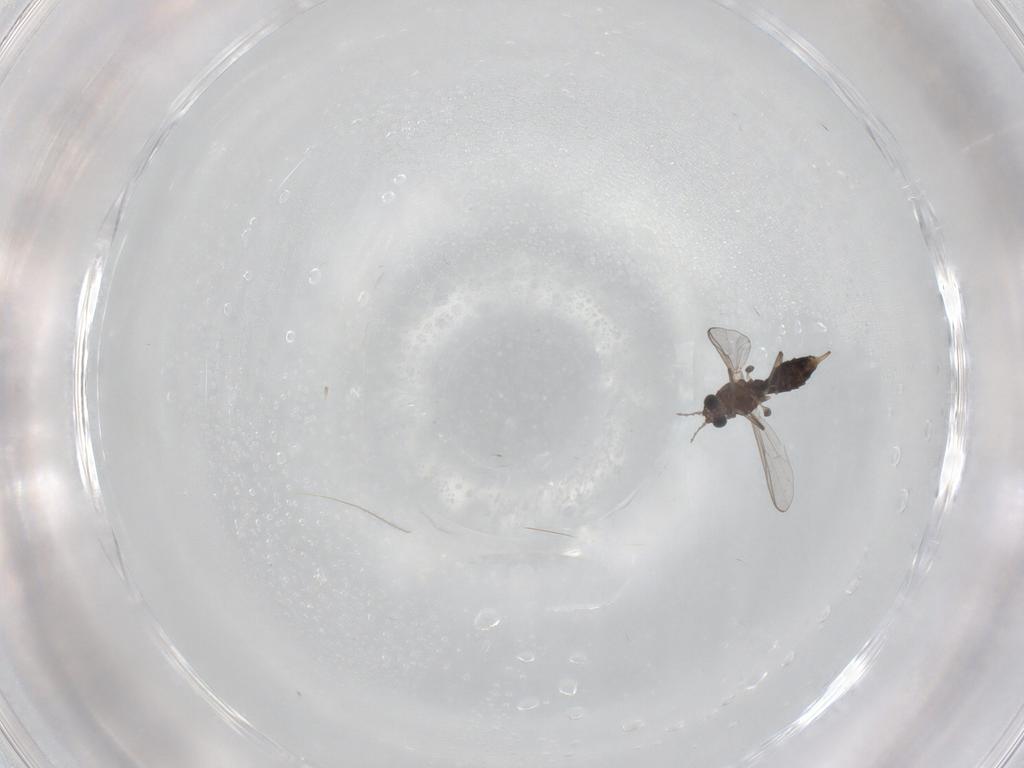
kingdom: Animalia
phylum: Arthropoda
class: Insecta
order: Diptera
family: Chironomidae
